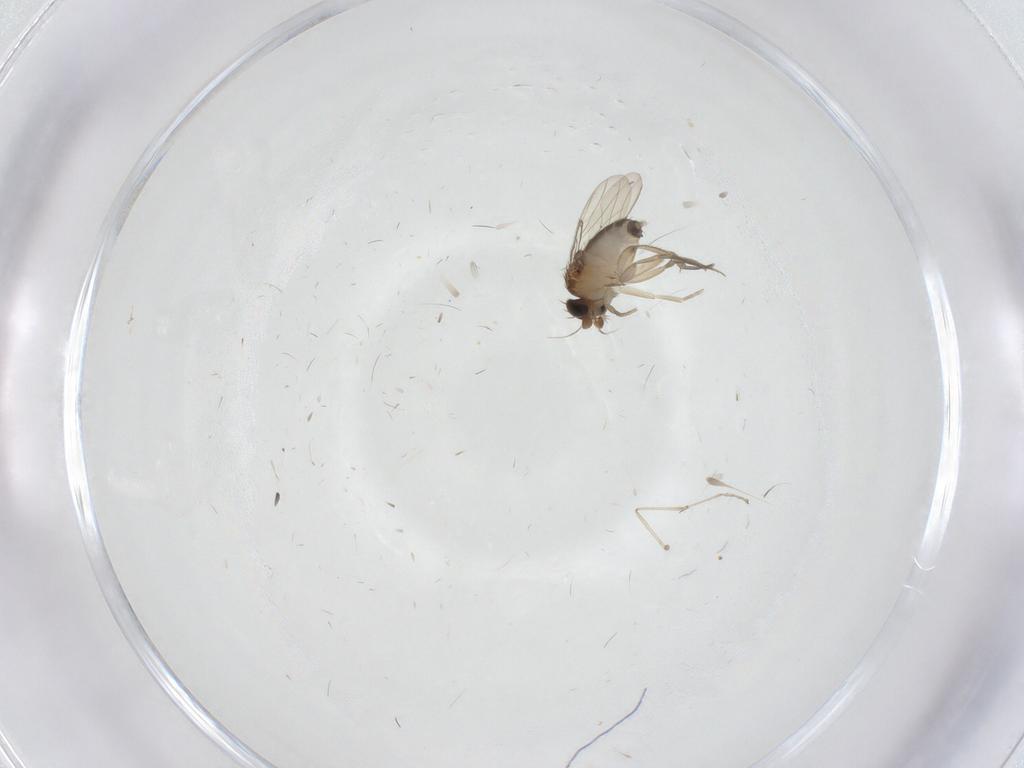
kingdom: Animalia
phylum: Arthropoda
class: Insecta
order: Diptera
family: Phoridae
